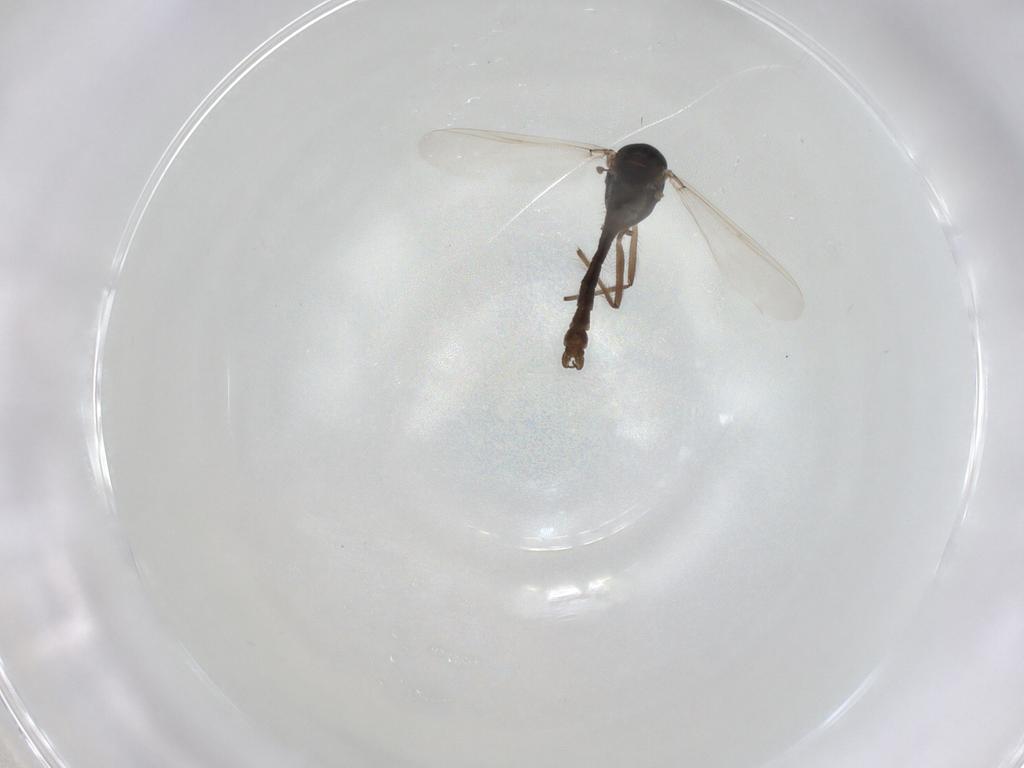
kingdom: Animalia
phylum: Arthropoda
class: Insecta
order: Diptera
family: Chironomidae
